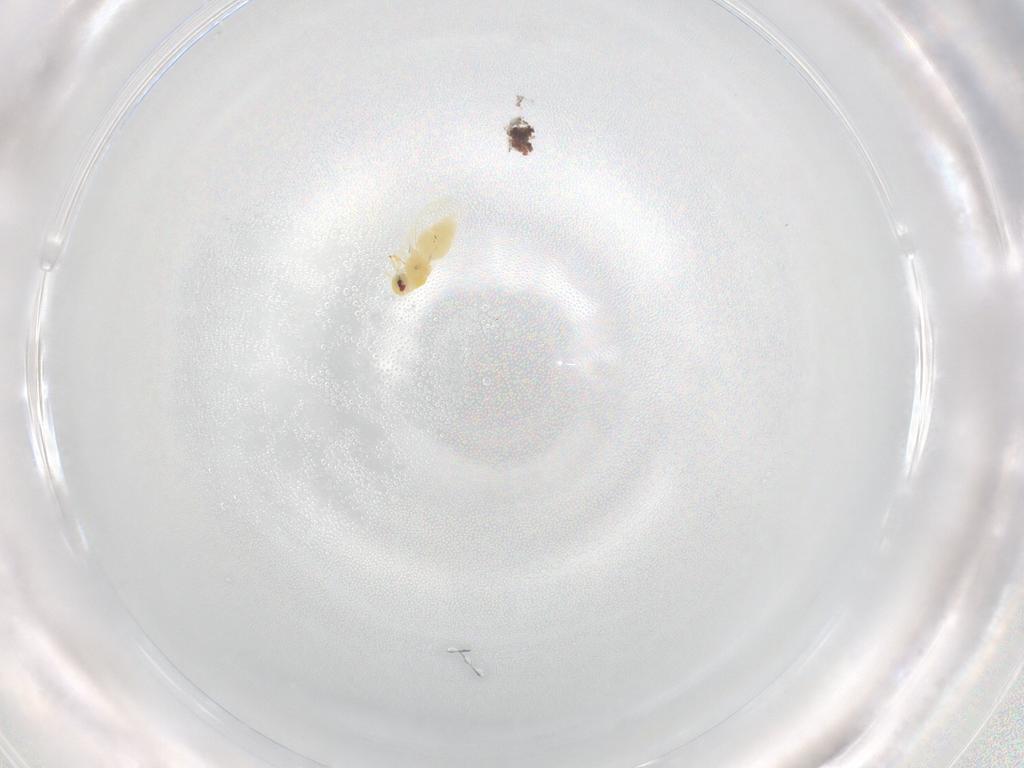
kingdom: Animalia
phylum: Arthropoda
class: Insecta
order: Hemiptera
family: Aleyrodidae
